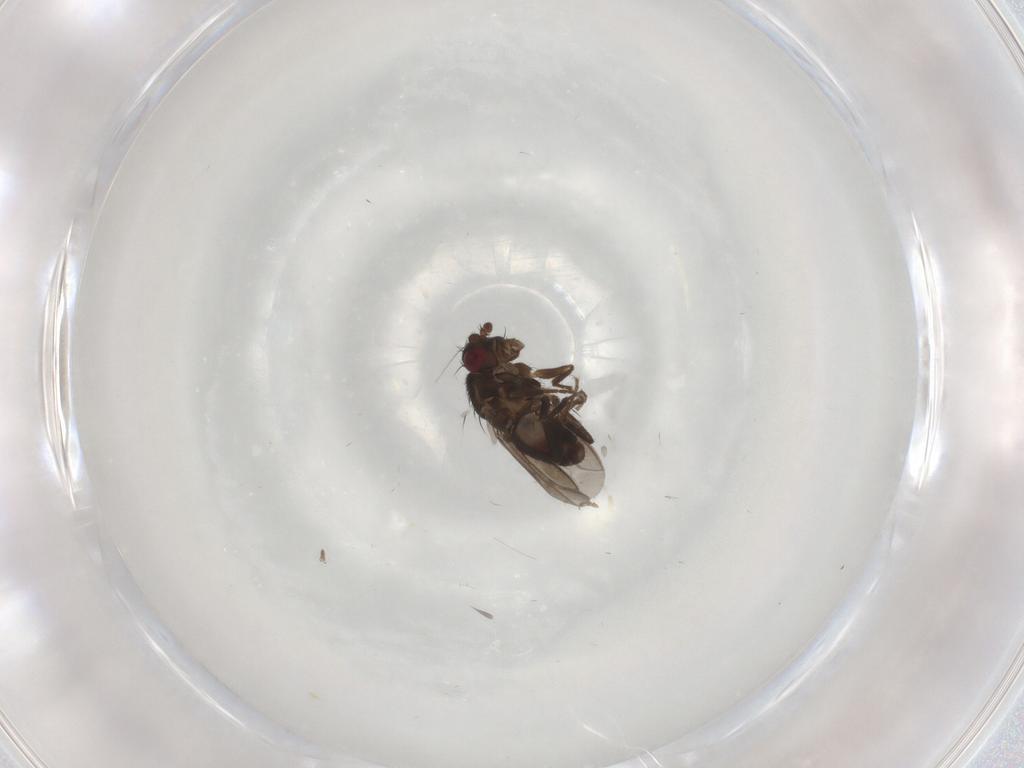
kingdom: Animalia
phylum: Arthropoda
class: Insecta
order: Diptera
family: Sphaeroceridae
